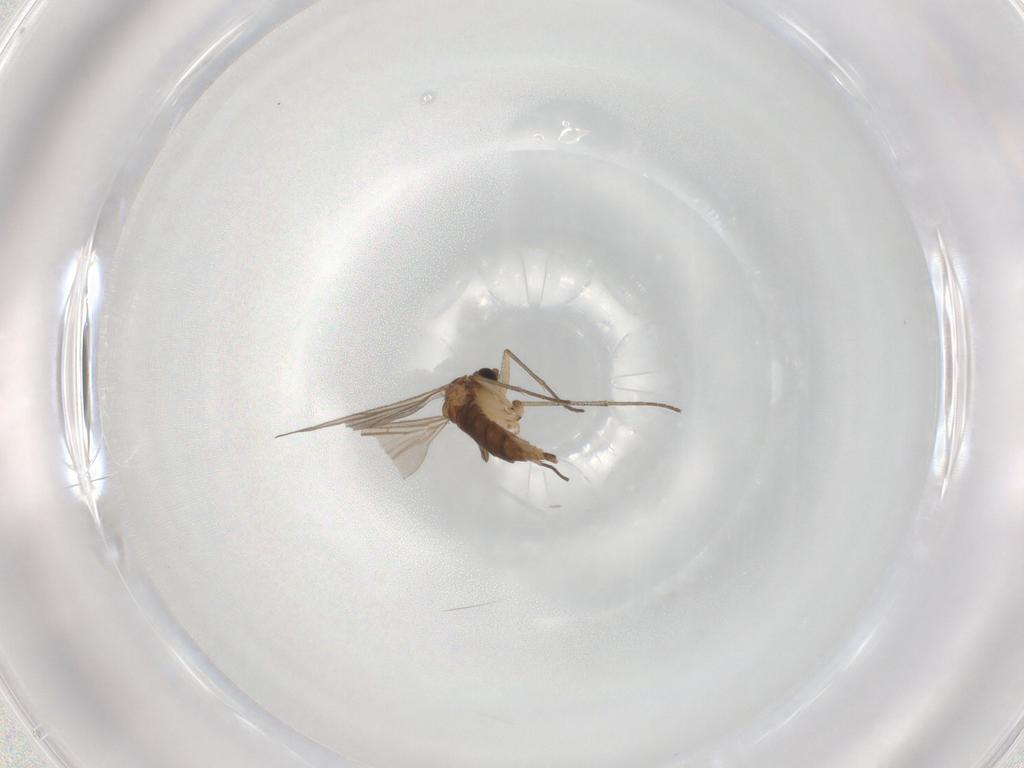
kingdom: Animalia
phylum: Arthropoda
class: Insecta
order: Diptera
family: Sciaridae
